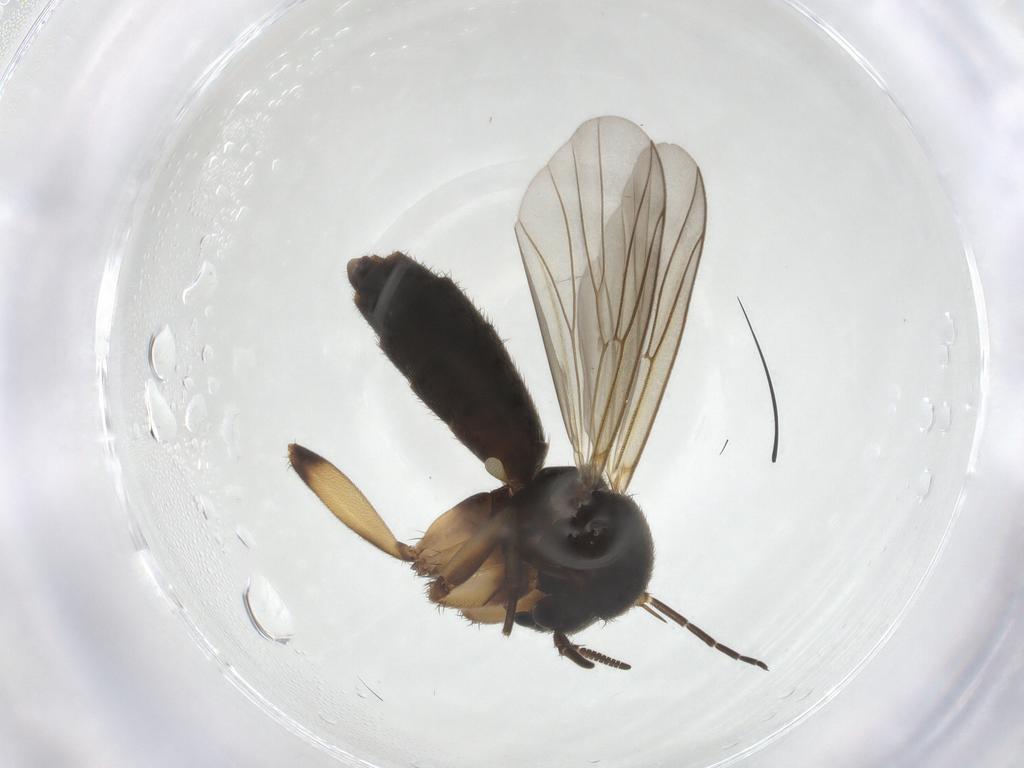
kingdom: Animalia
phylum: Arthropoda
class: Insecta
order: Diptera
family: Mycetophilidae
